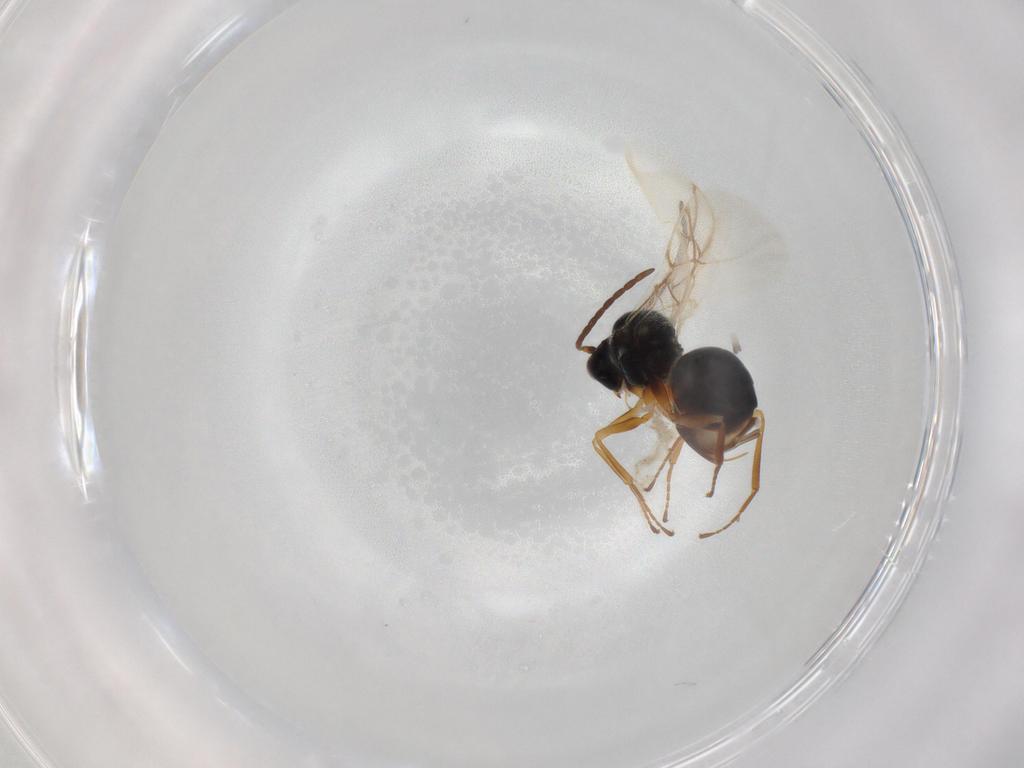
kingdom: Animalia
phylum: Arthropoda
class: Insecta
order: Hymenoptera
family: Figitidae
